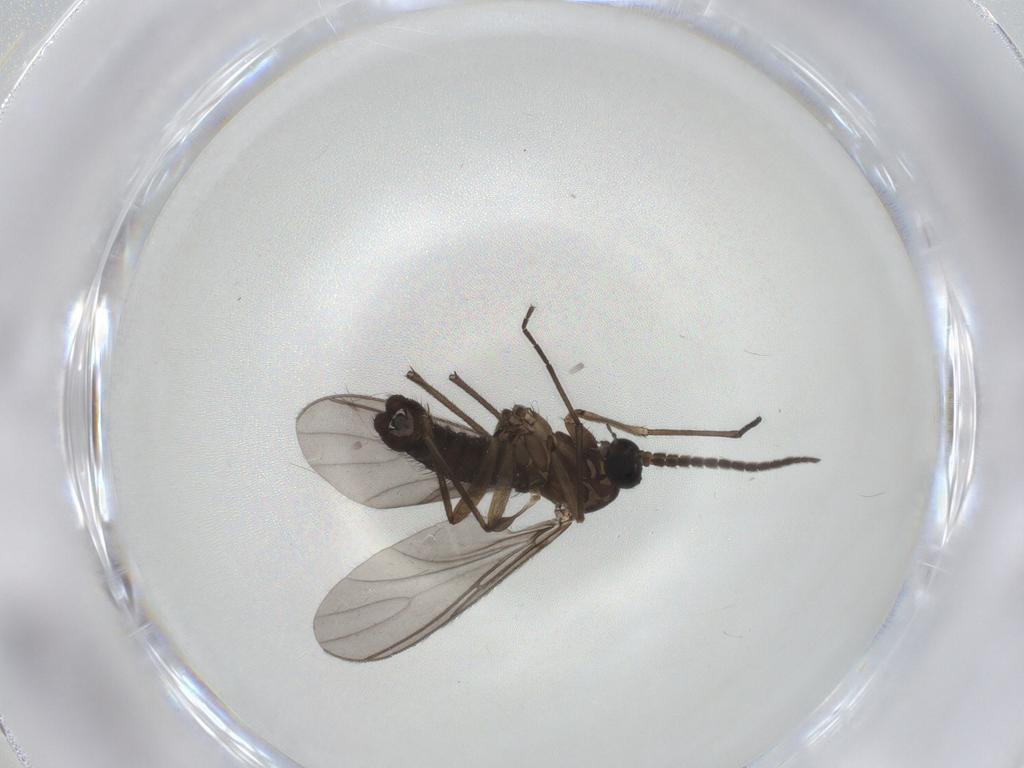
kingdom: Animalia
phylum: Arthropoda
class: Insecta
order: Diptera
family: Sciaridae
